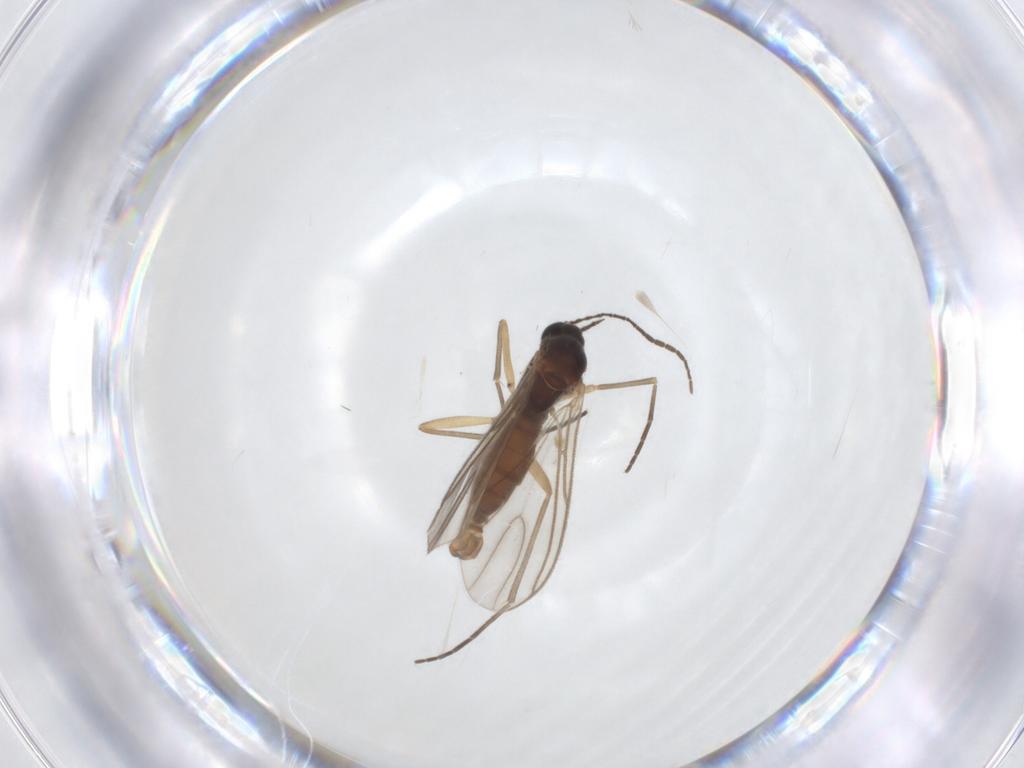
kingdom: Animalia
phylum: Arthropoda
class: Insecta
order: Diptera
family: Sciaridae
